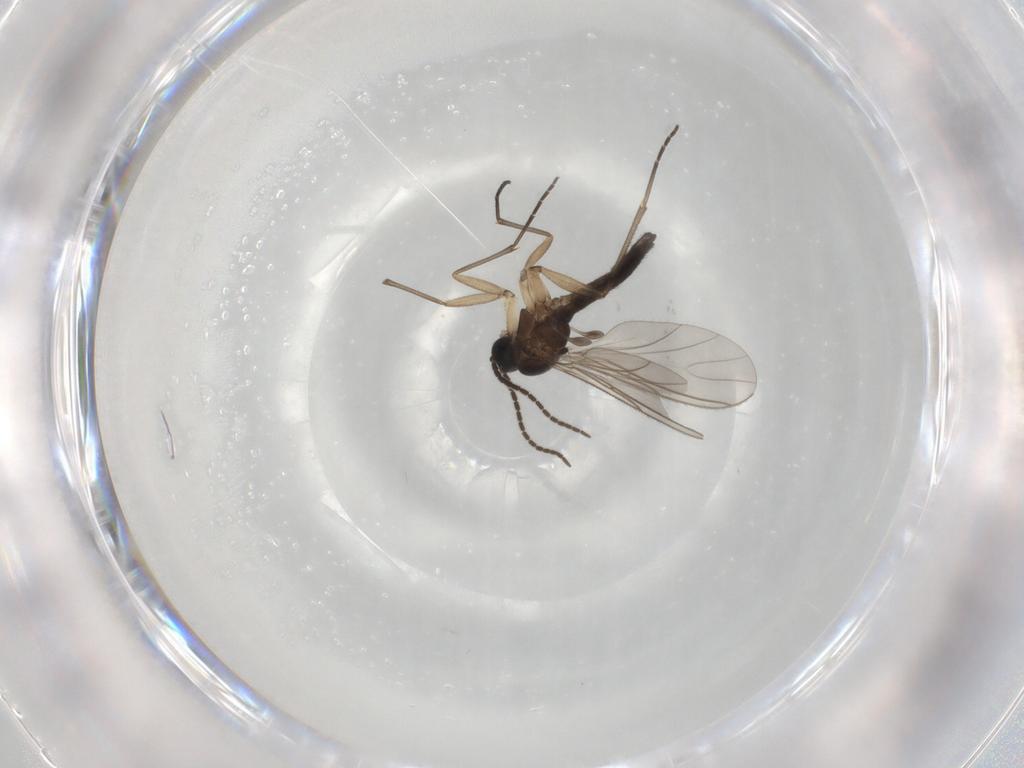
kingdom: Animalia
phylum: Arthropoda
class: Insecta
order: Diptera
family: Cecidomyiidae
